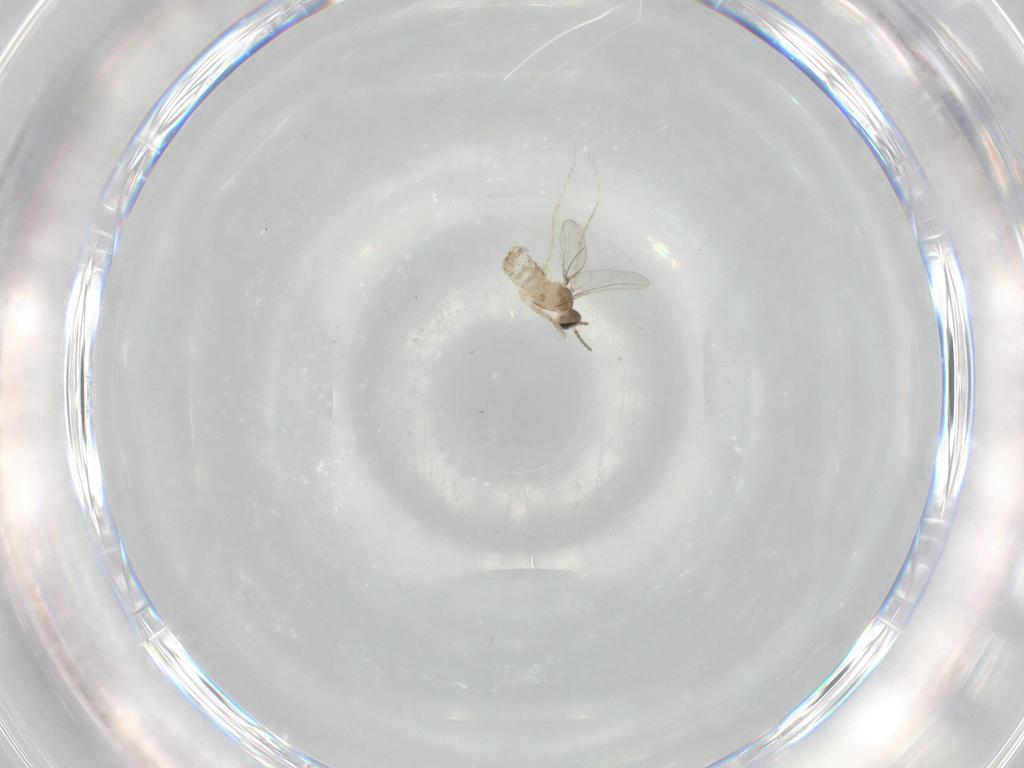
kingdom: Animalia
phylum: Arthropoda
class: Insecta
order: Diptera
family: Cecidomyiidae
